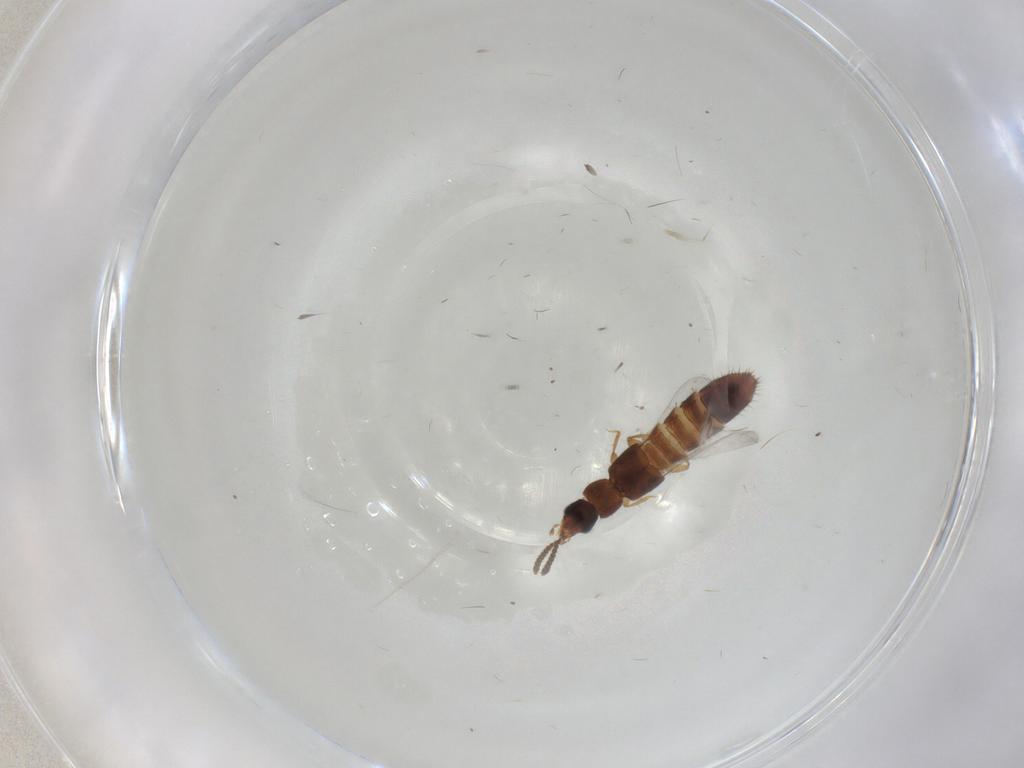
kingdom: Animalia
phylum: Arthropoda
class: Insecta
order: Coleoptera
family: Staphylinidae
